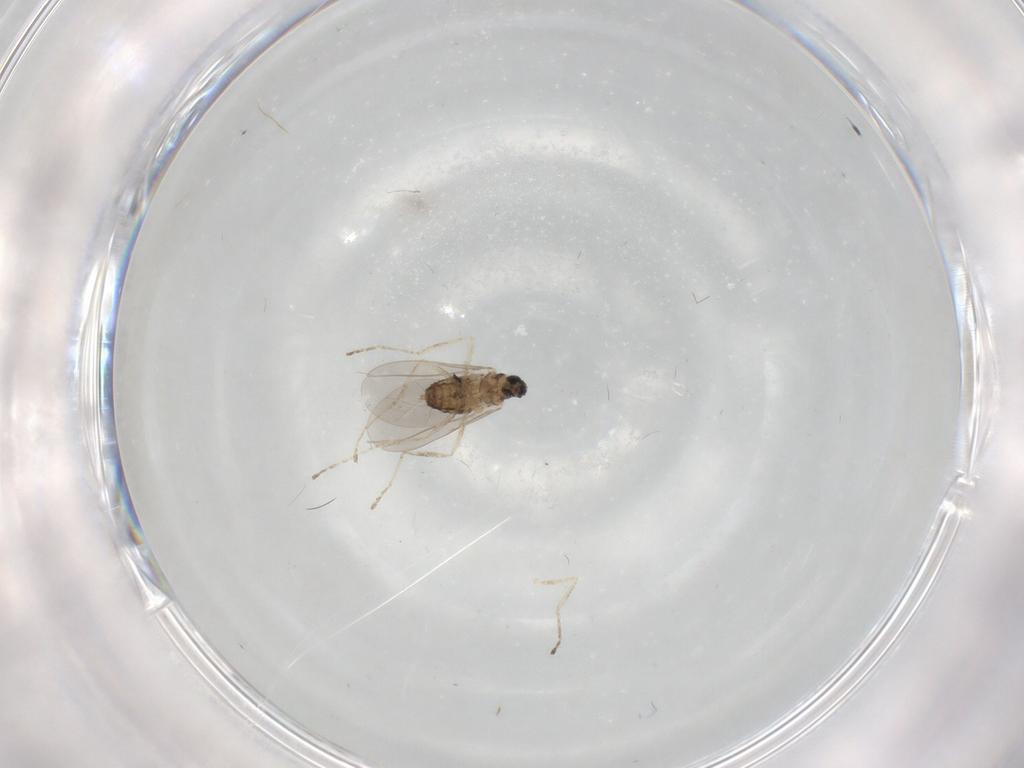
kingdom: Animalia
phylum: Arthropoda
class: Insecta
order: Diptera
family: Cecidomyiidae
